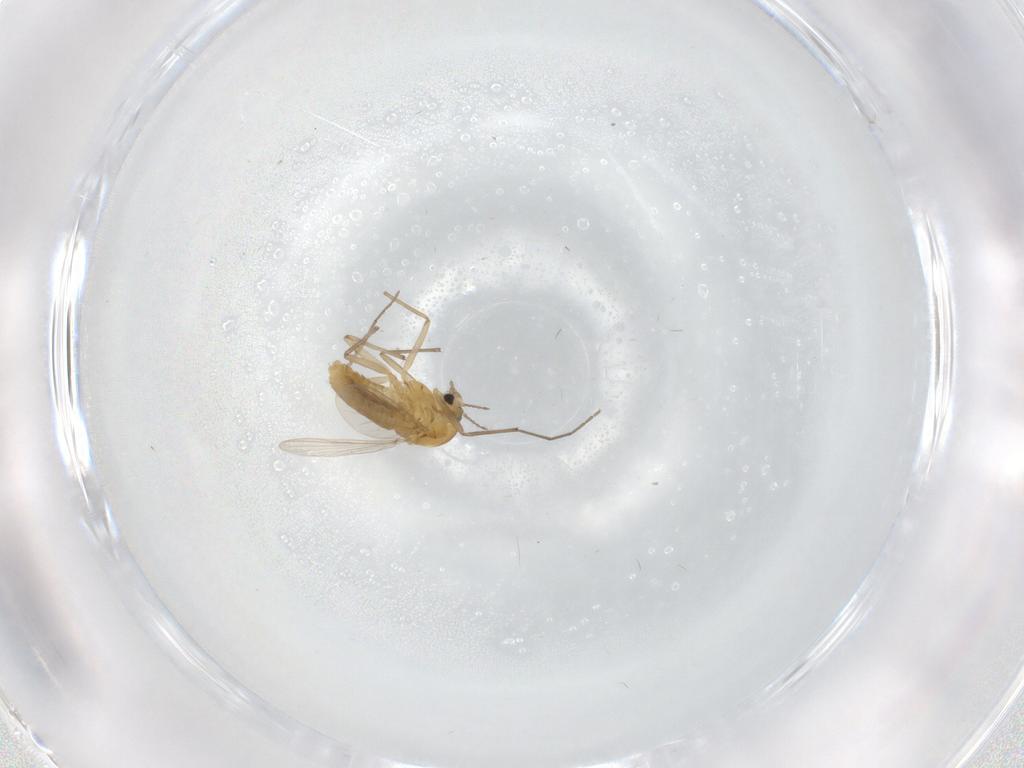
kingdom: Animalia
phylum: Arthropoda
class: Insecta
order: Diptera
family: Chironomidae
